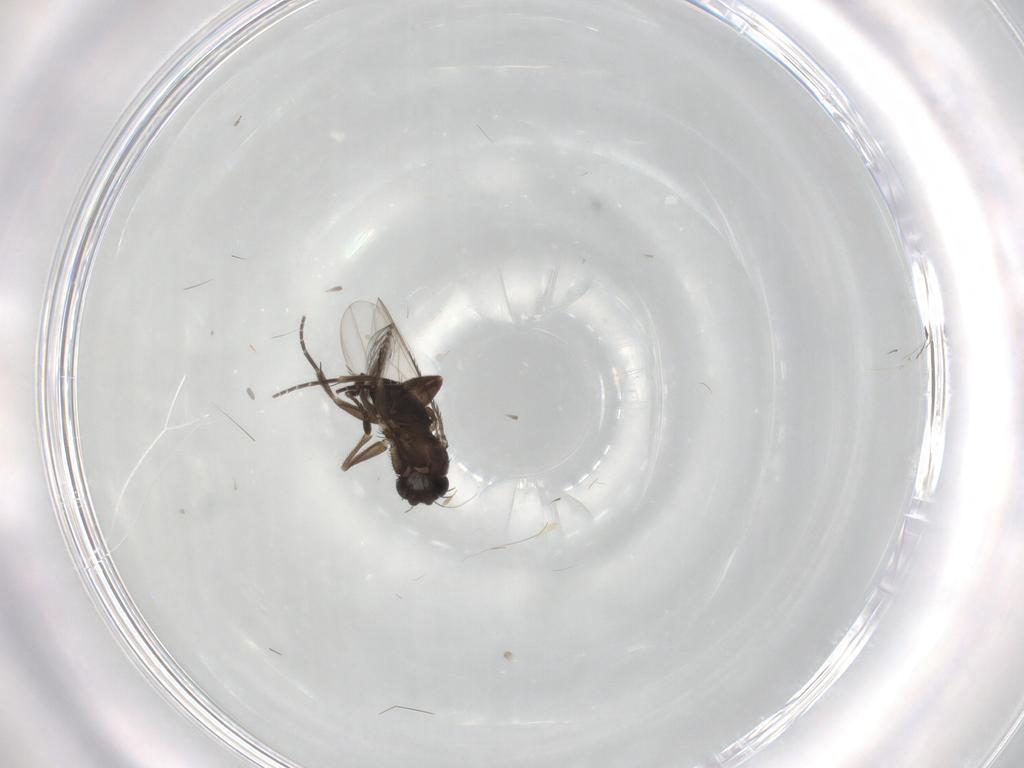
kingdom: Animalia
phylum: Arthropoda
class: Insecta
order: Diptera
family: Phoridae
